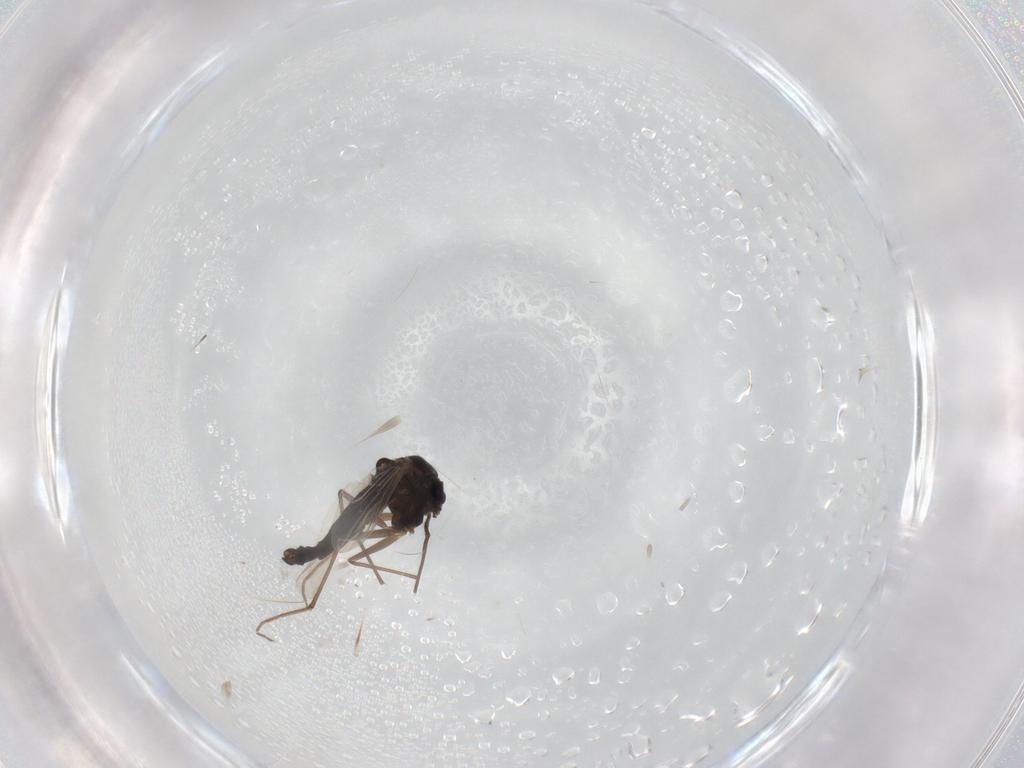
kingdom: Animalia
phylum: Arthropoda
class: Insecta
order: Diptera
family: Chironomidae
